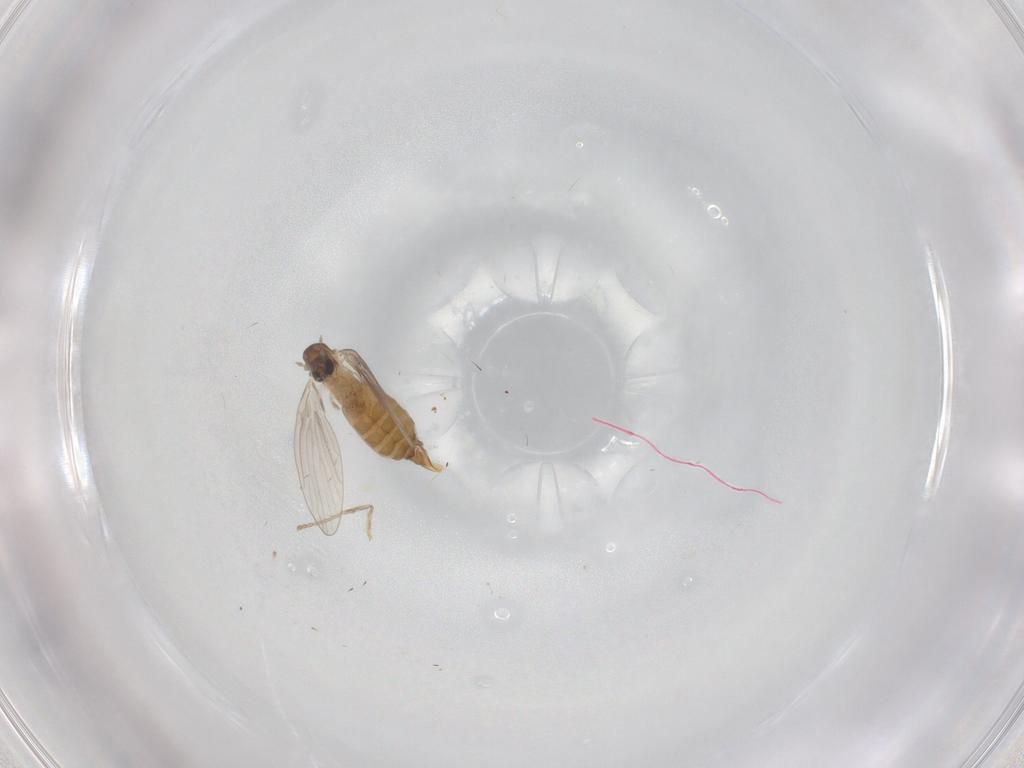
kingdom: Animalia
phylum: Arthropoda
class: Insecta
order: Diptera
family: Psychodidae
